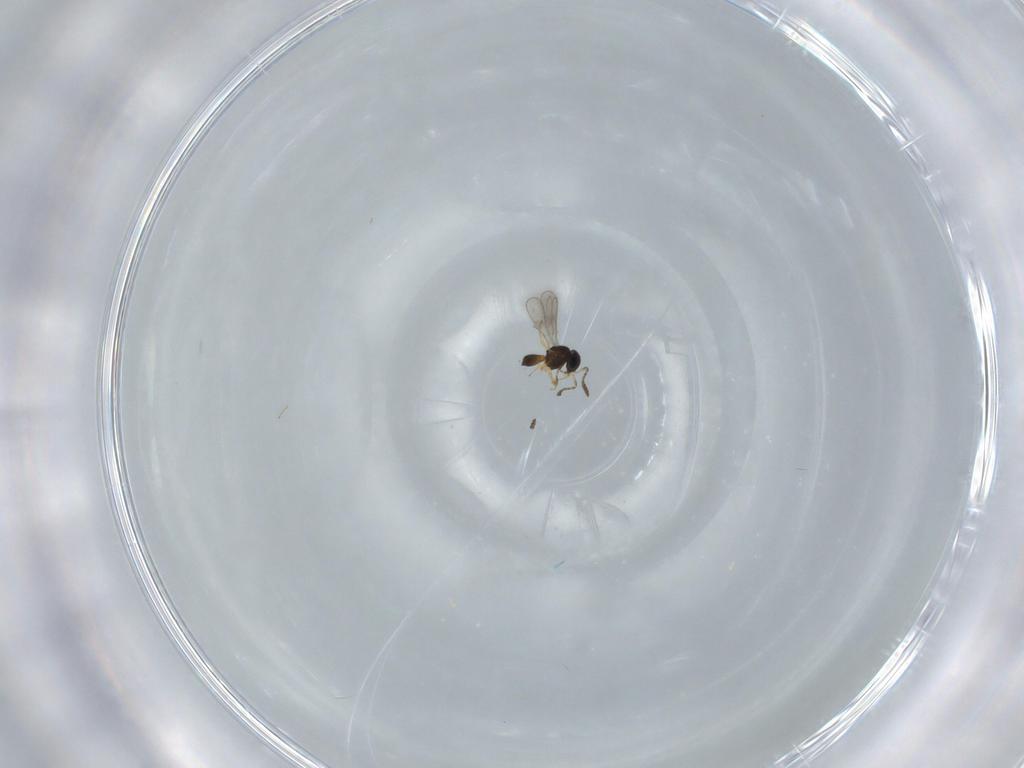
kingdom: Animalia
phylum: Arthropoda
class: Insecta
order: Hymenoptera
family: Scelionidae
